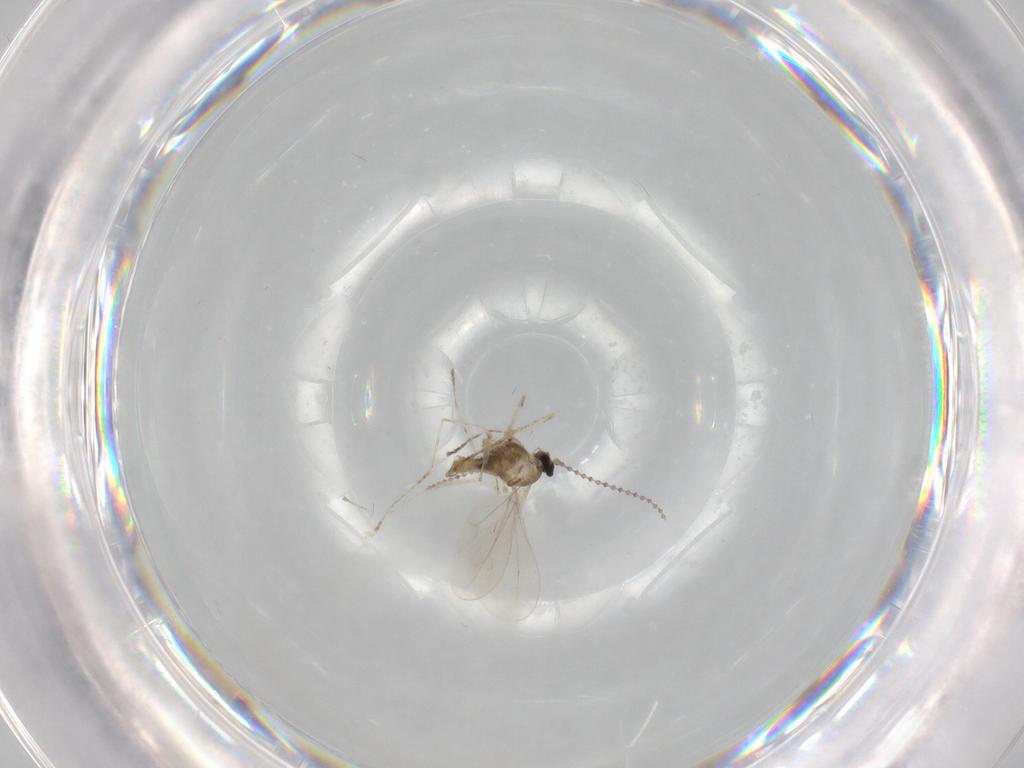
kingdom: Animalia
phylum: Arthropoda
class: Insecta
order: Diptera
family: Cecidomyiidae
